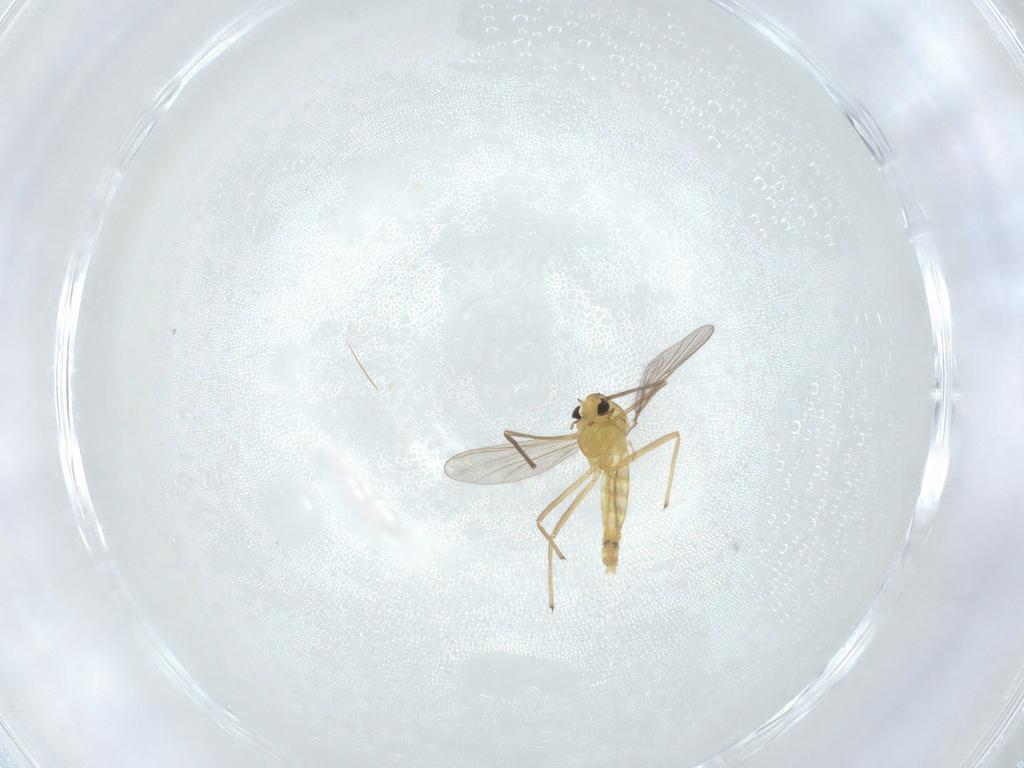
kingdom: Animalia
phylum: Arthropoda
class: Insecta
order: Diptera
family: Chironomidae
